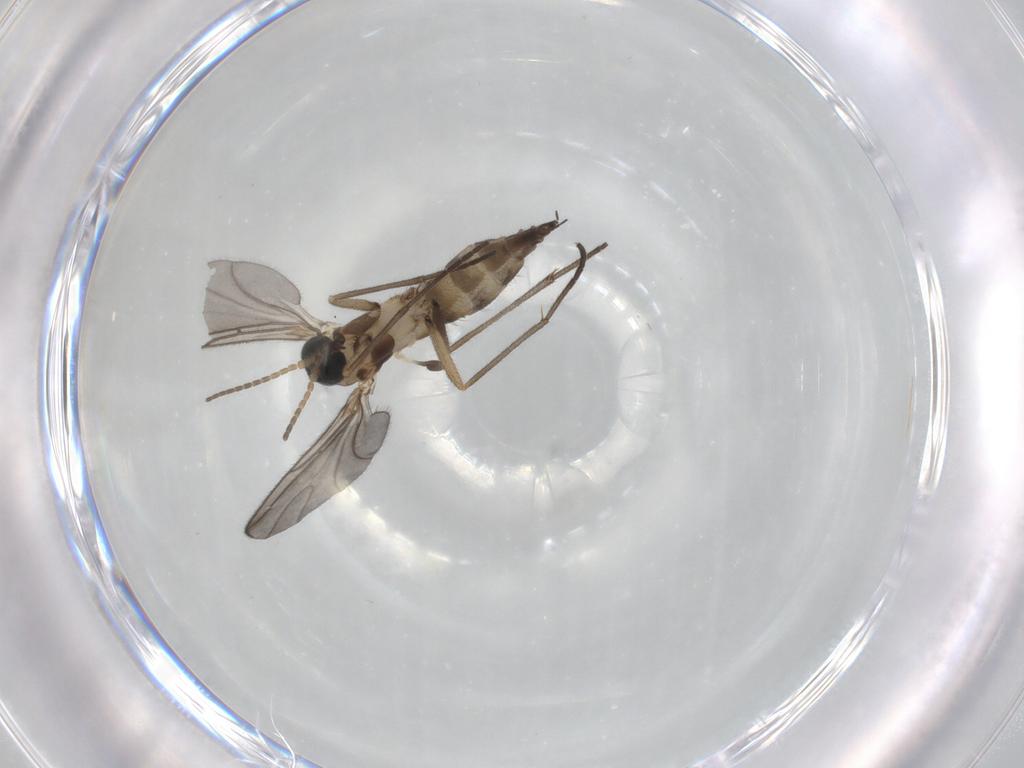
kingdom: Animalia
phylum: Arthropoda
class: Insecta
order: Diptera
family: Sciaridae
